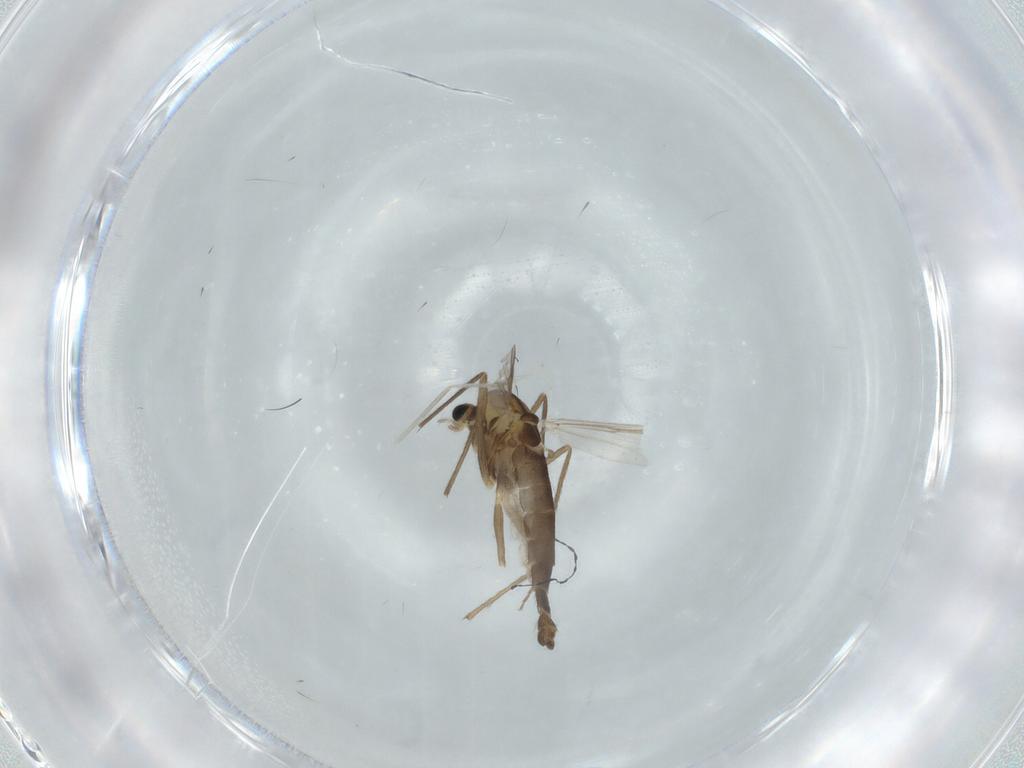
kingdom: Animalia
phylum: Arthropoda
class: Insecta
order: Diptera
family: Chironomidae
